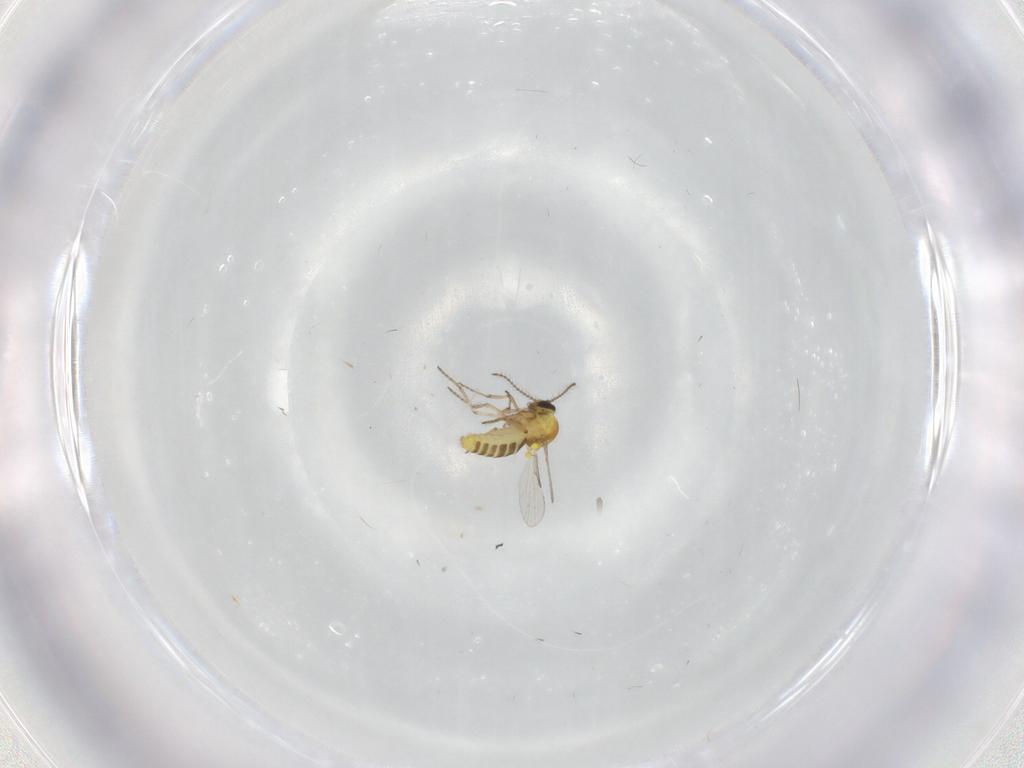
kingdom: Animalia
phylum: Arthropoda
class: Insecta
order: Diptera
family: Ceratopogonidae
